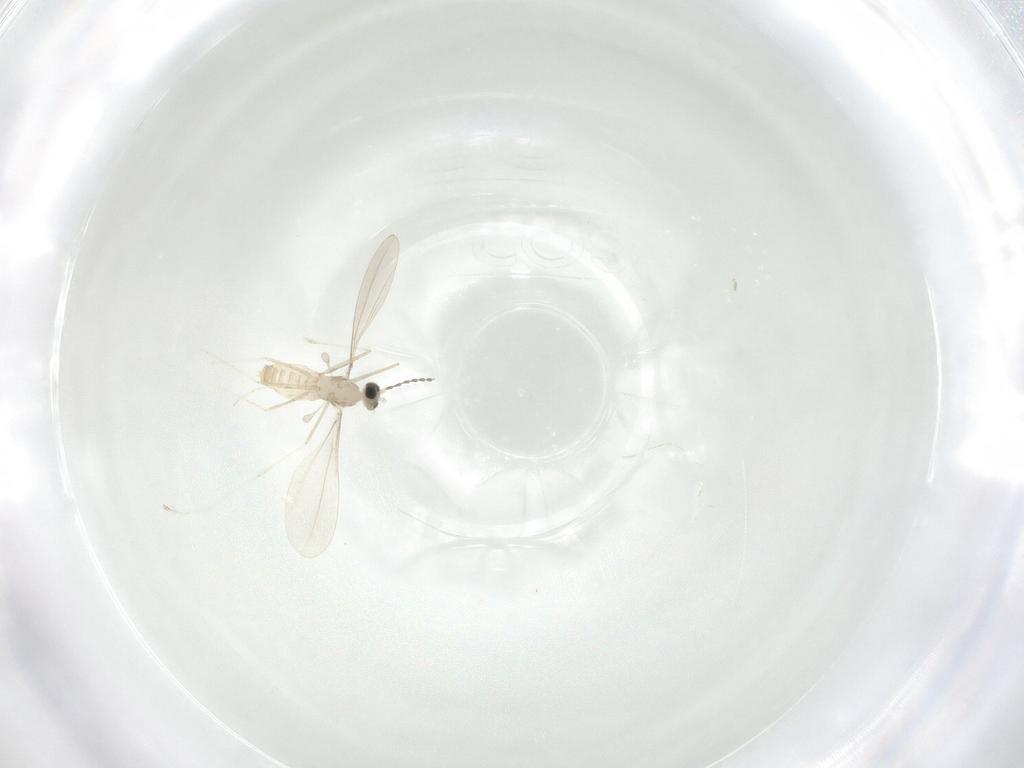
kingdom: Animalia
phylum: Arthropoda
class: Insecta
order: Diptera
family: Cecidomyiidae
